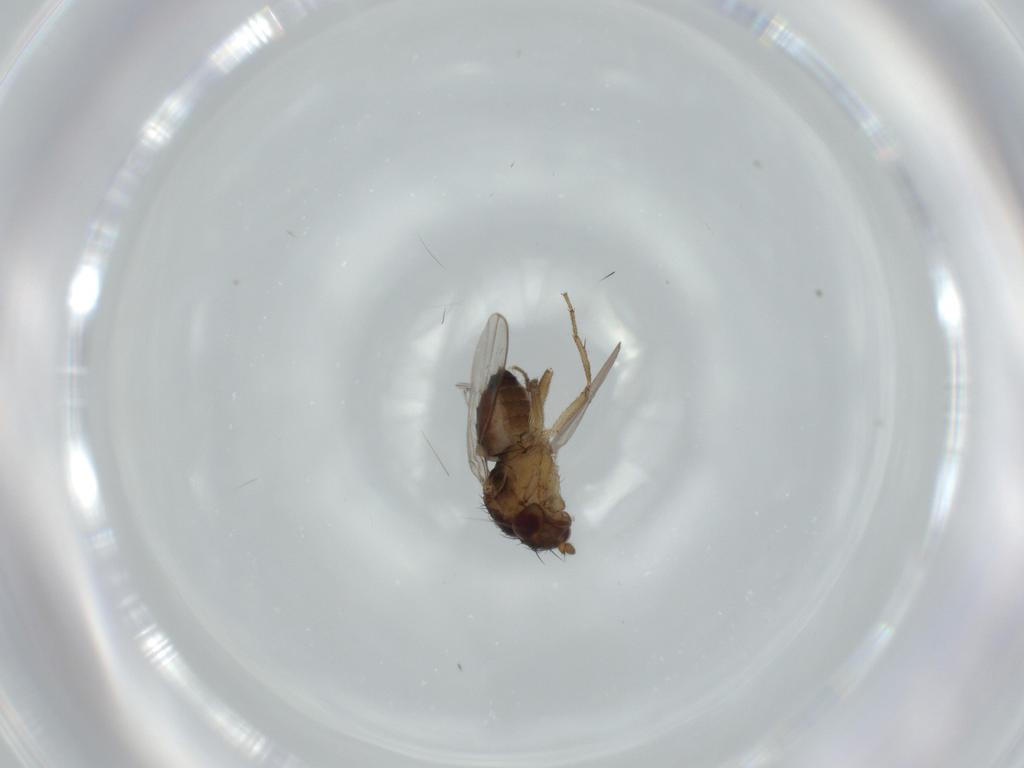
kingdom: Animalia
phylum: Arthropoda
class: Insecta
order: Diptera
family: Sphaeroceridae
